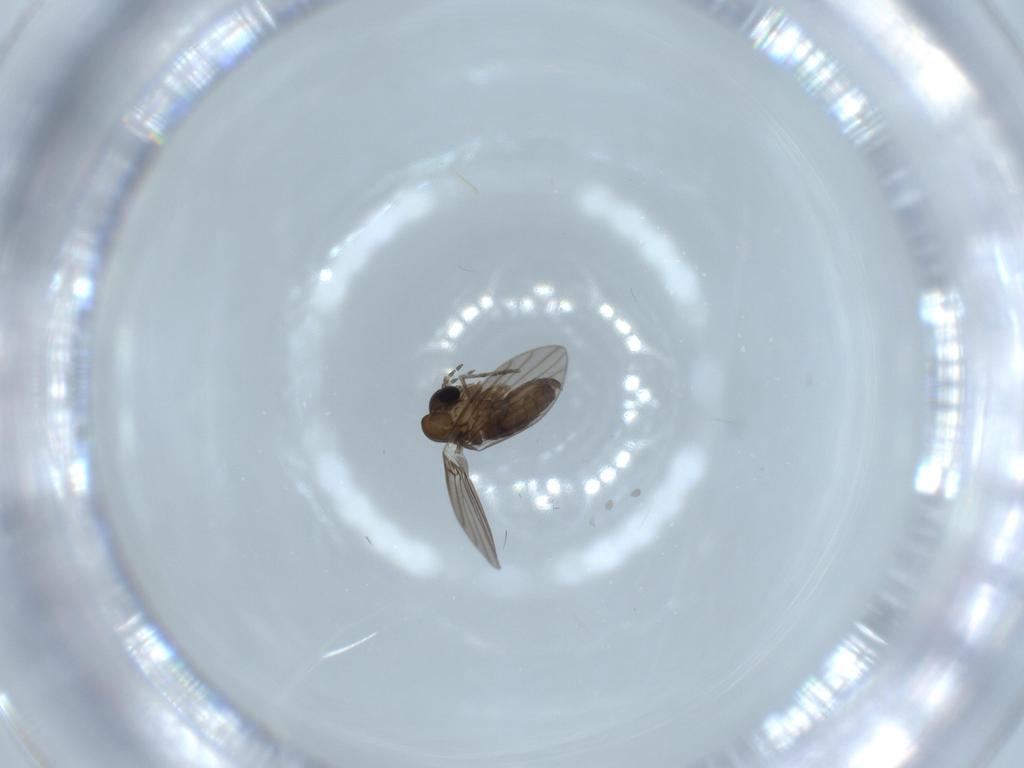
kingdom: Animalia
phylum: Arthropoda
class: Insecta
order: Diptera
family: Psychodidae
